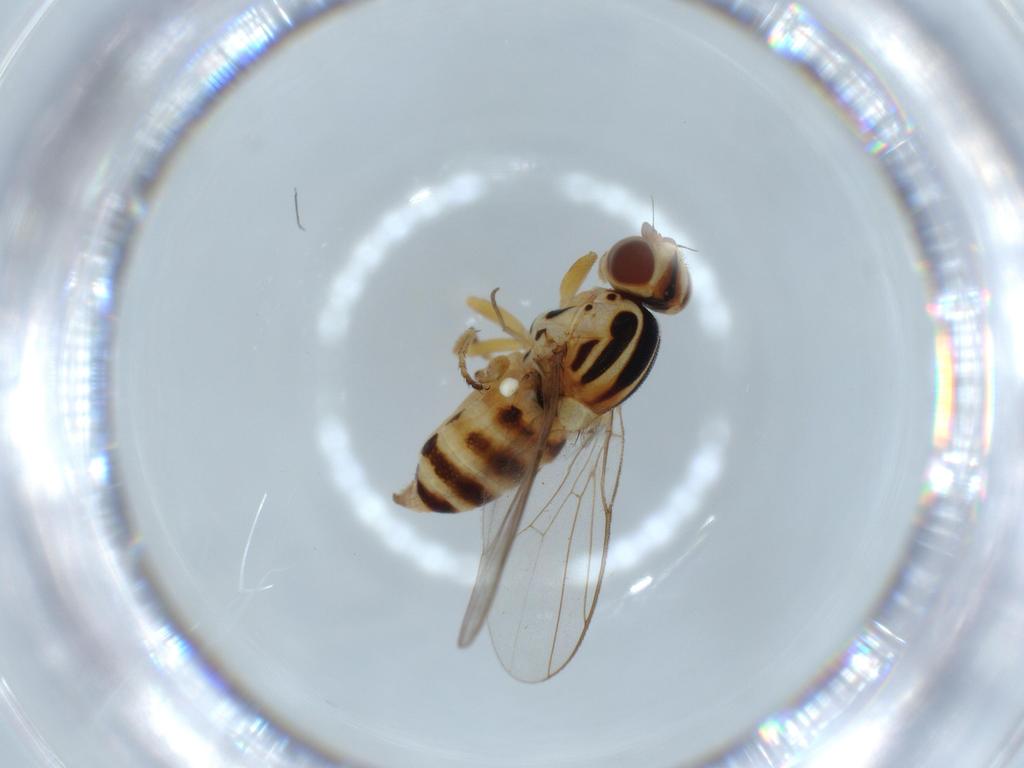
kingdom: Animalia
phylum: Arthropoda
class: Insecta
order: Diptera
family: Chloropidae
